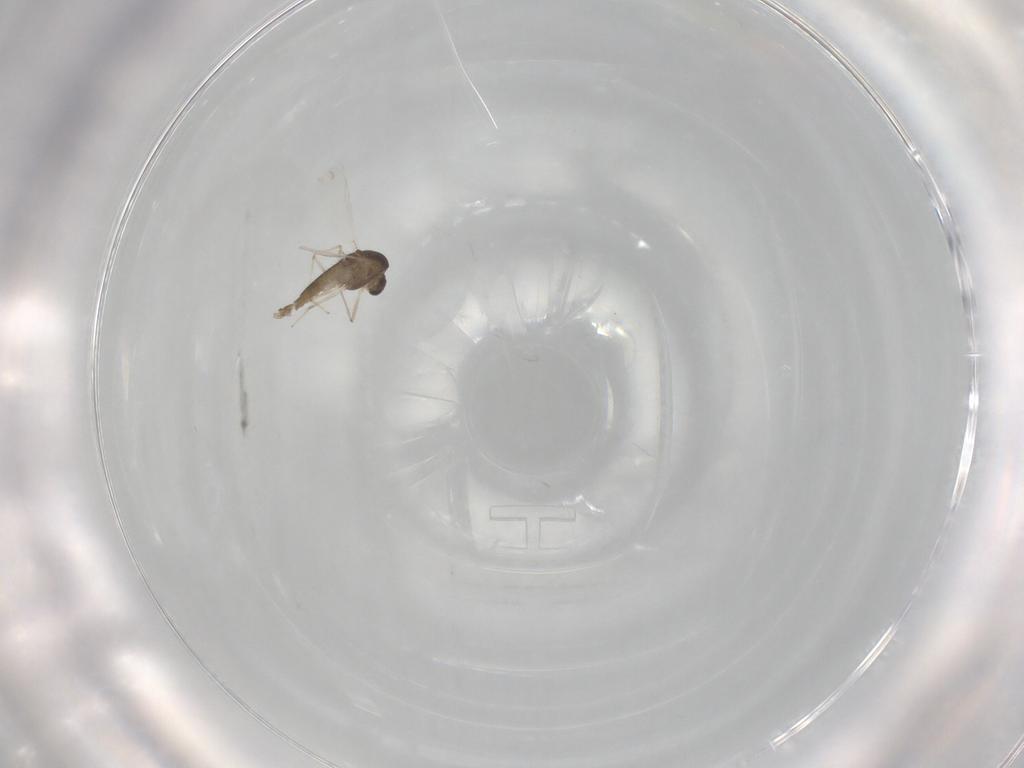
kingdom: Animalia
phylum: Arthropoda
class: Insecta
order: Diptera
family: Chironomidae
